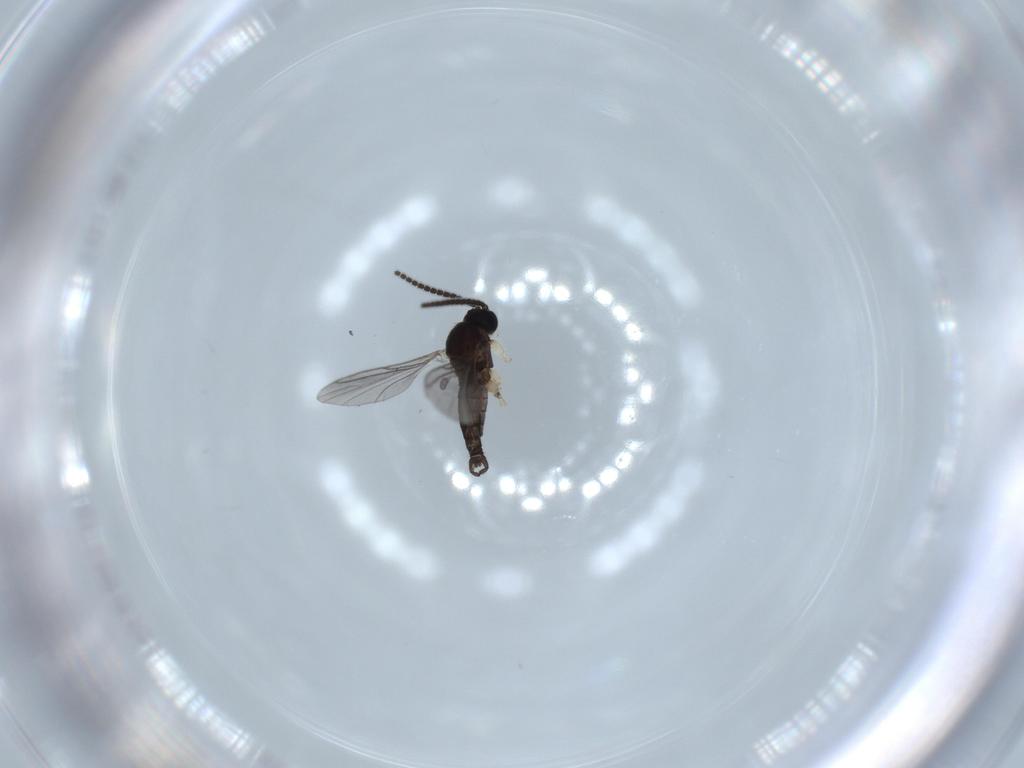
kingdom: Animalia
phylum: Arthropoda
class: Insecta
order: Diptera
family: Sciaridae
